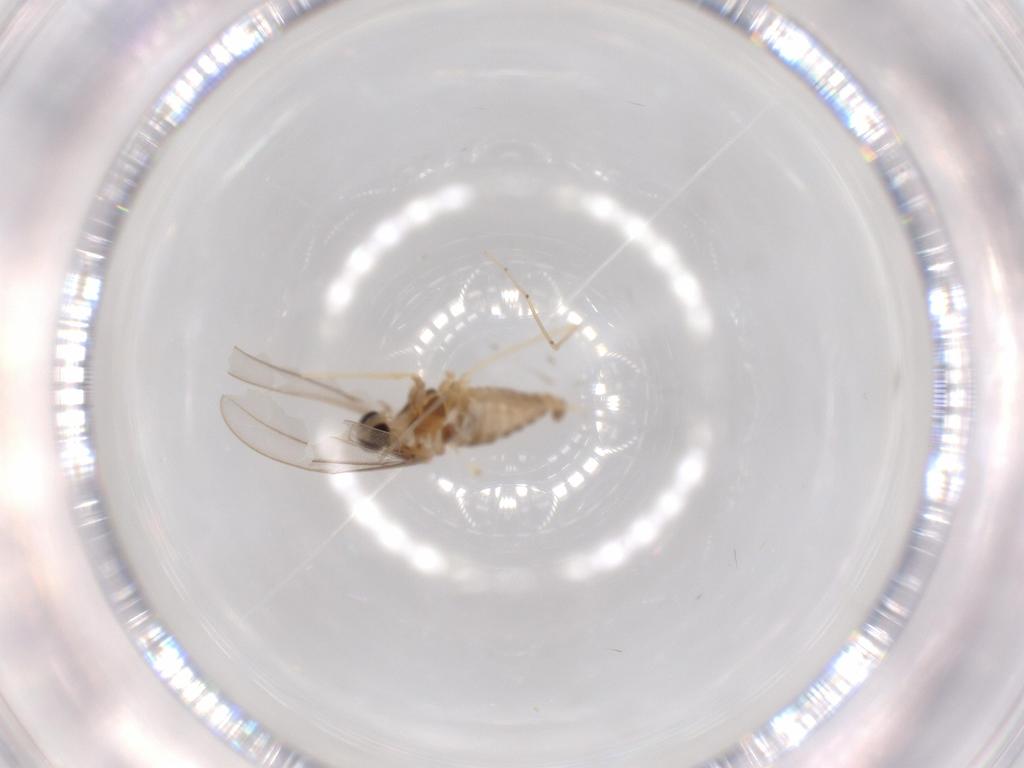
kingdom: Animalia
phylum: Arthropoda
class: Insecta
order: Diptera
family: Cecidomyiidae
